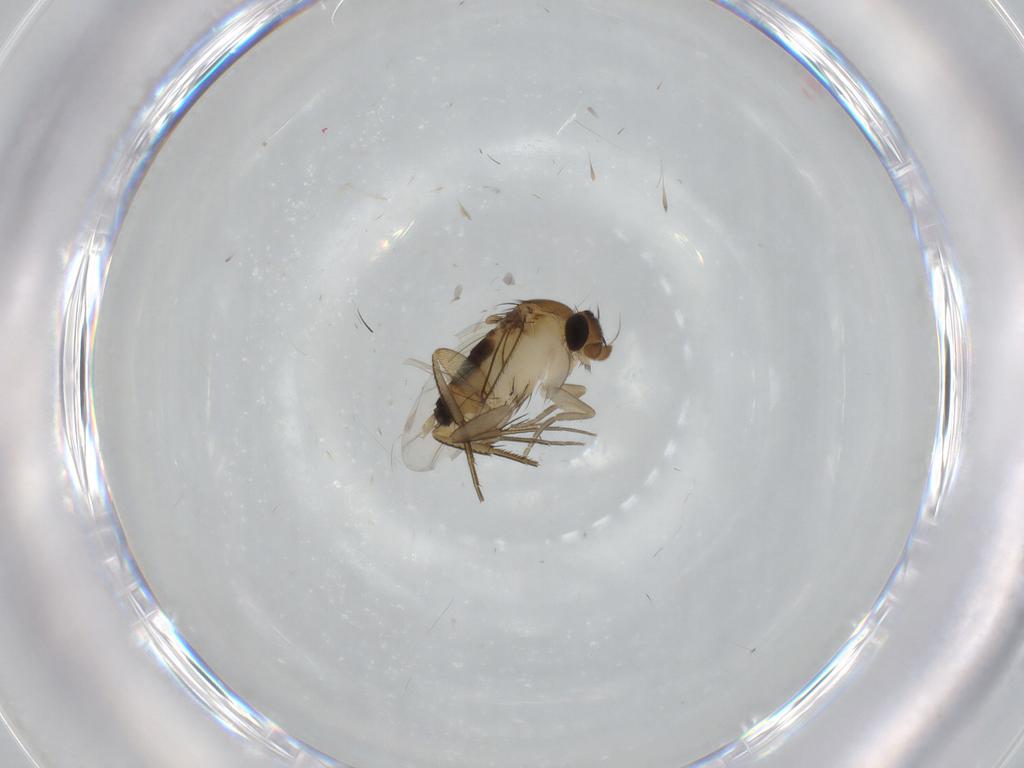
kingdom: Animalia
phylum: Arthropoda
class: Insecta
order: Diptera
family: Phoridae
